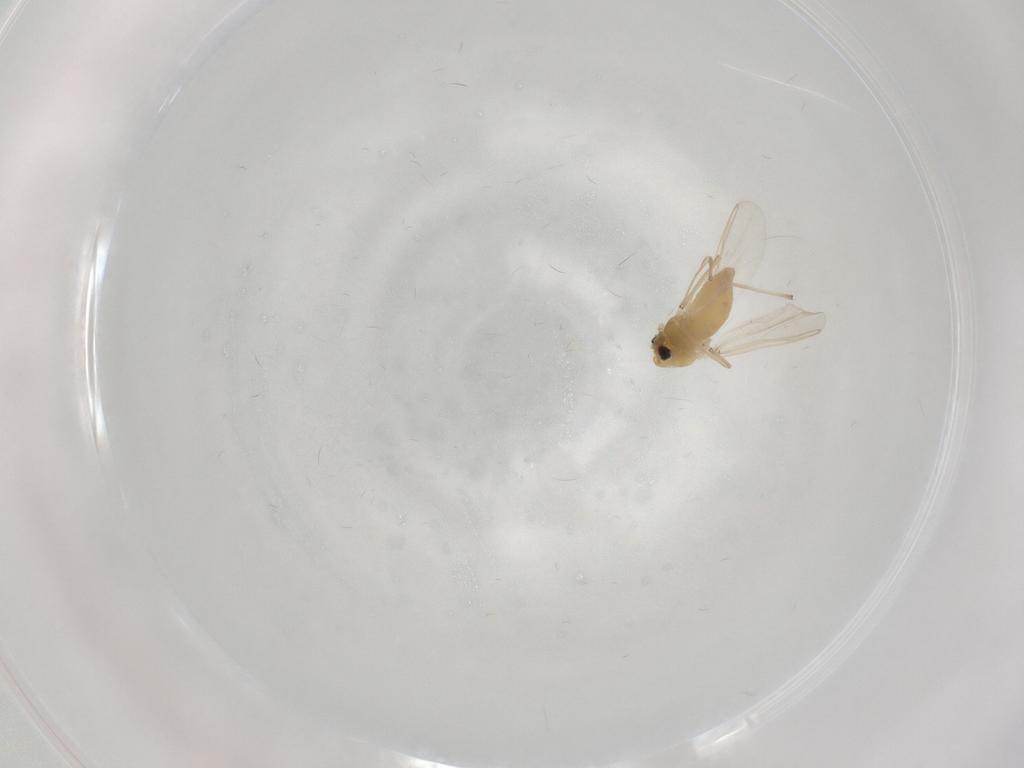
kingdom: Animalia
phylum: Arthropoda
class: Insecta
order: Diptera
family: Chironomidae
